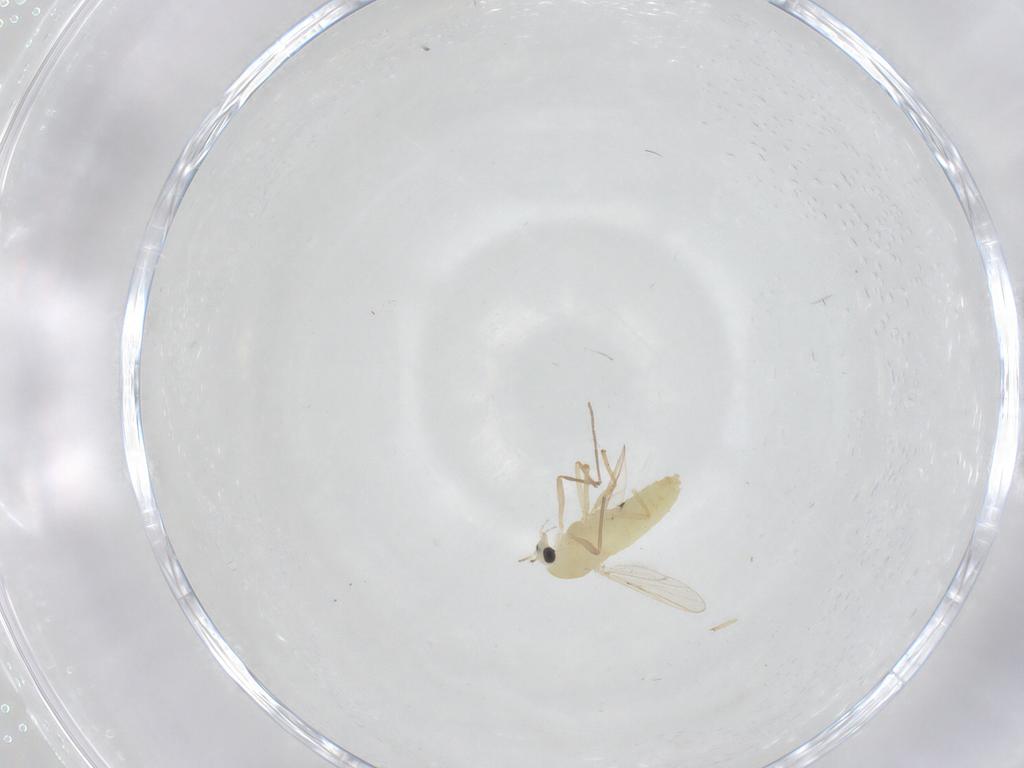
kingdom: Animalia
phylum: Arthropoda
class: Insecta
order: Diptera
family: Chironomidae
